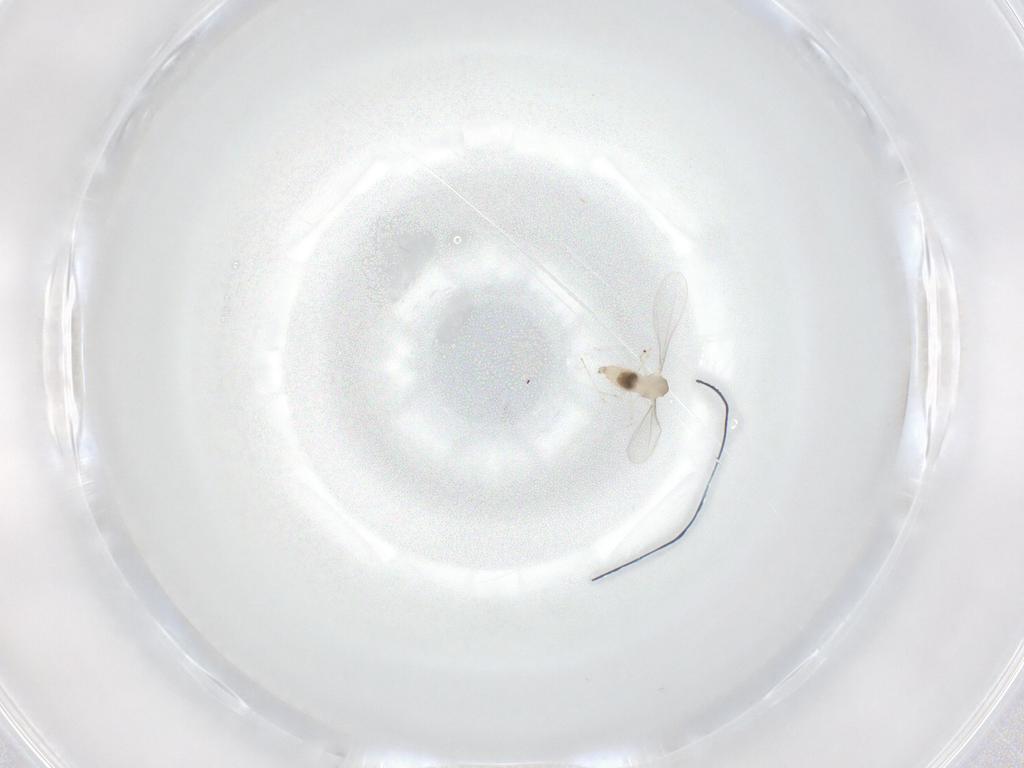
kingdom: Animalia
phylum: Arthropoda
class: Insecta
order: Diptera
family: Cecidomyiidae
